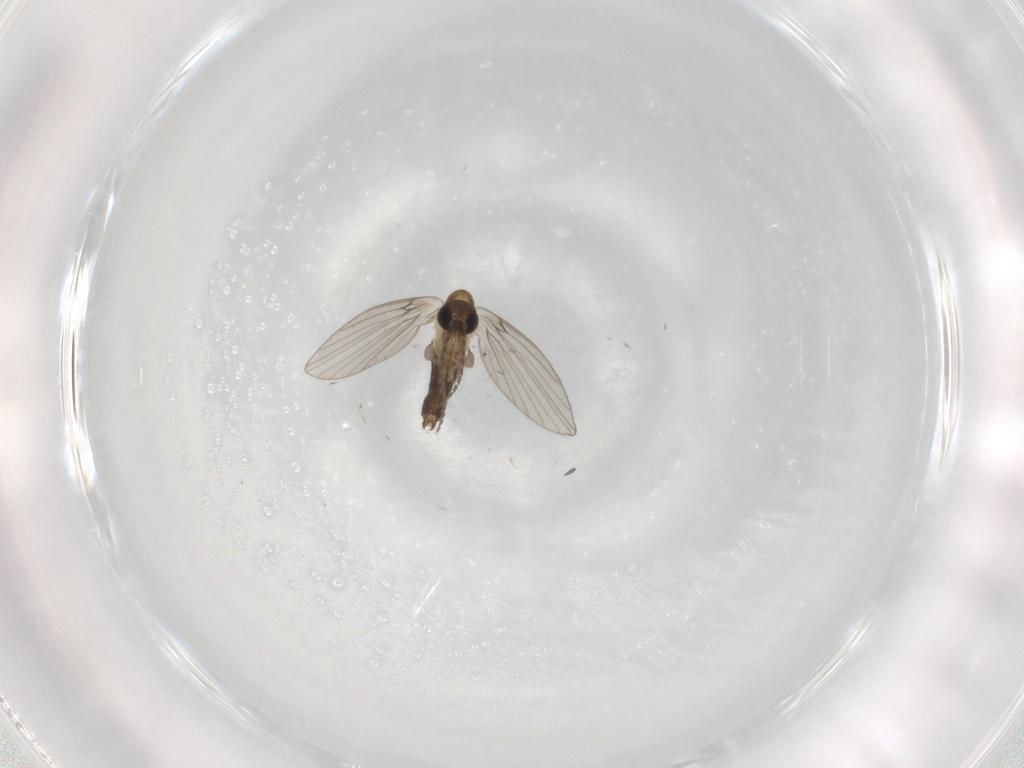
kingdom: Animalia
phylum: Arthropoda
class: Insecta
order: Diptera
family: Psychodidae
